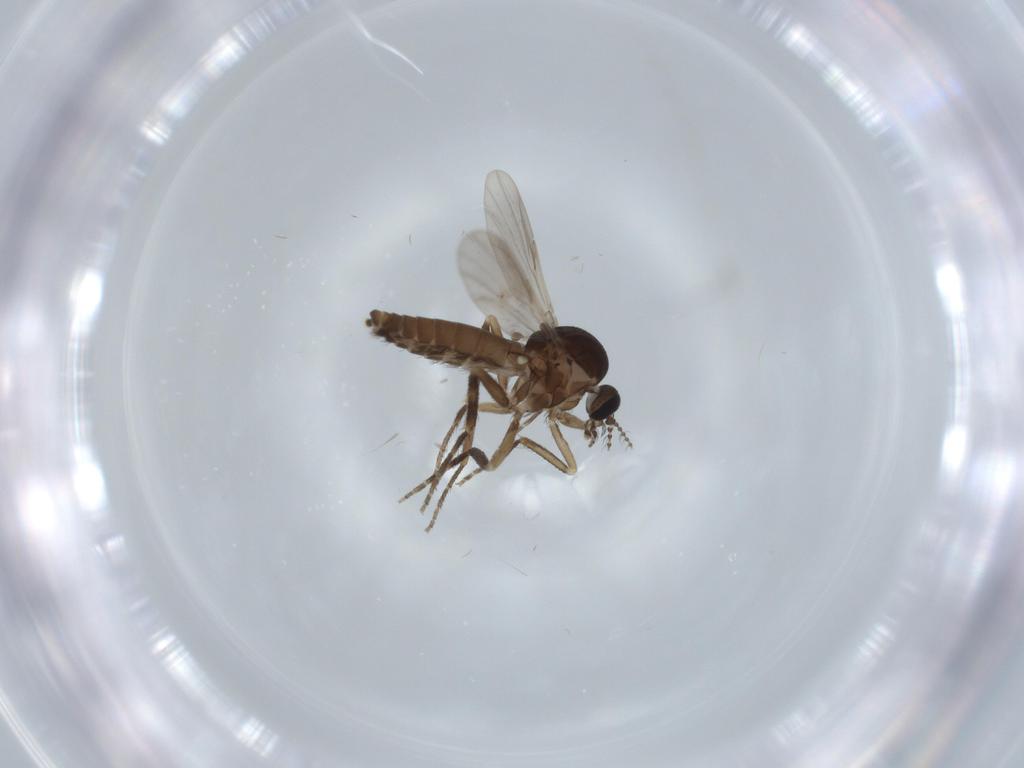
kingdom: Animalia
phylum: Arthropoda
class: Insecta
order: Diptera
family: Ceratopogonidae
